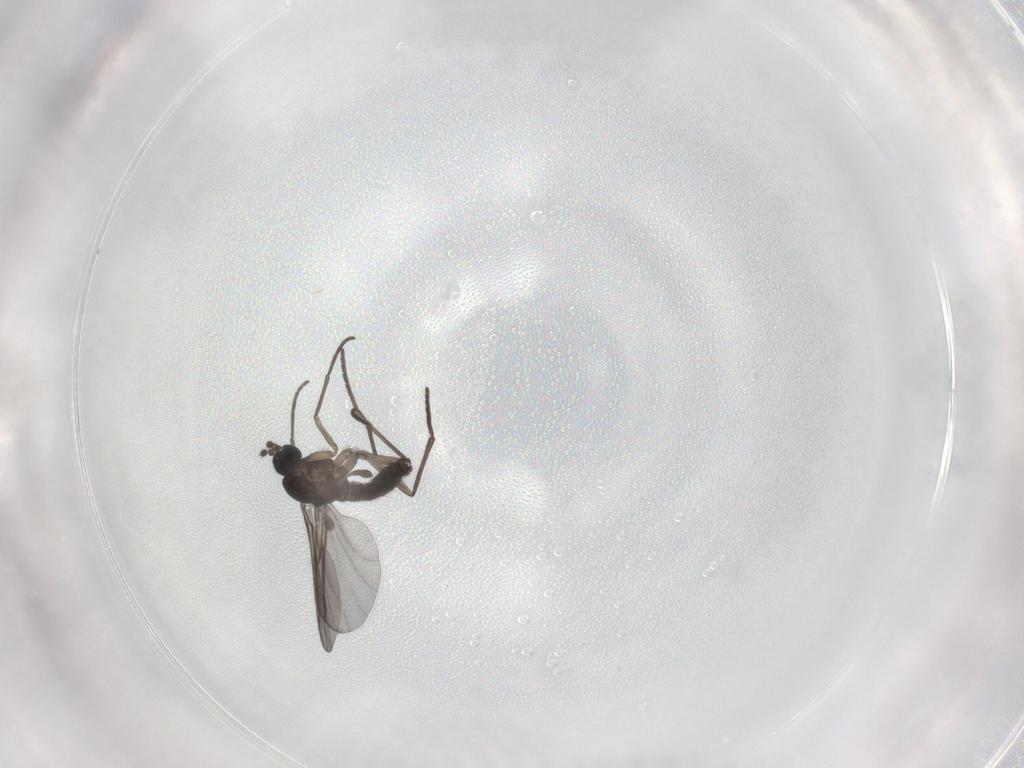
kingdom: Animalia
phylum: Arthropoda
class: Insecta
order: Diptera
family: Ceratopogonidae
